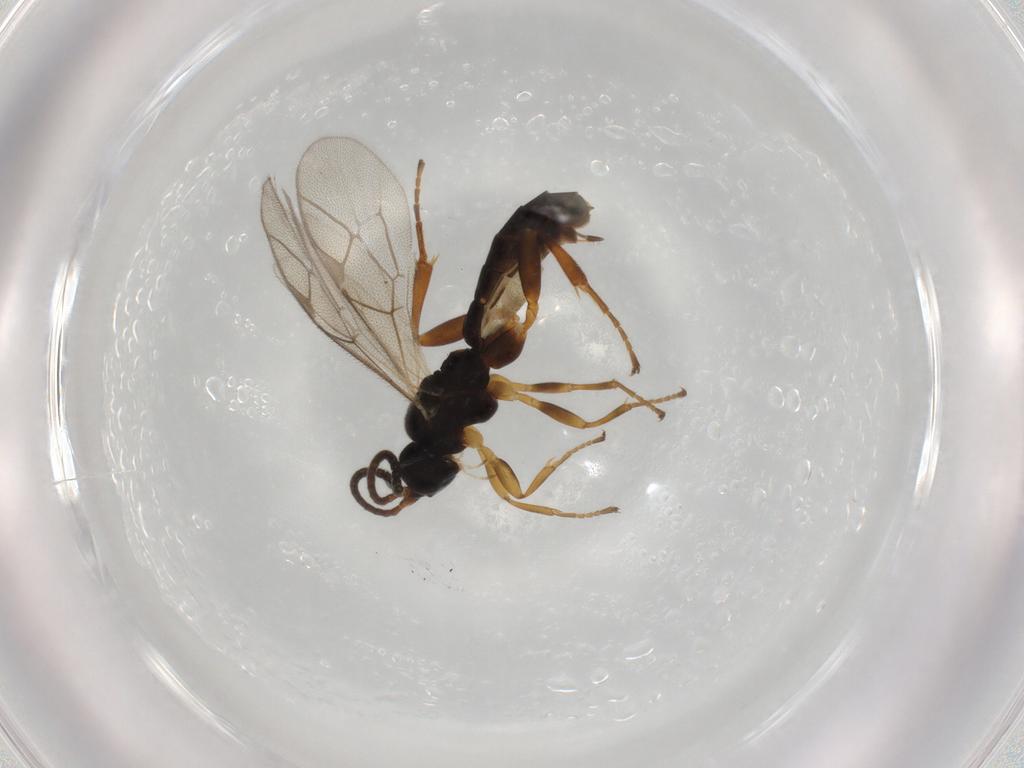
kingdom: Animalia
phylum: Arthropoda
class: Insecta
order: Hymenoptera
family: Ichneumonidae
